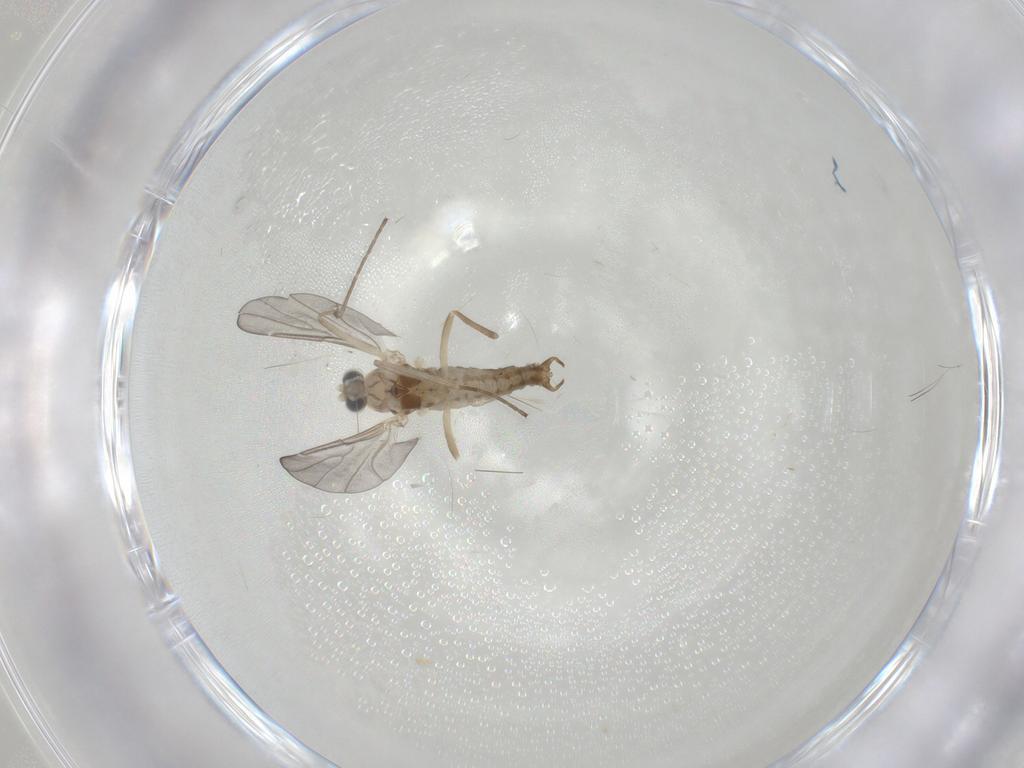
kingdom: Animalia
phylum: Arthropoda
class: Insecta
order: Diptera
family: Cecidomyiidae
